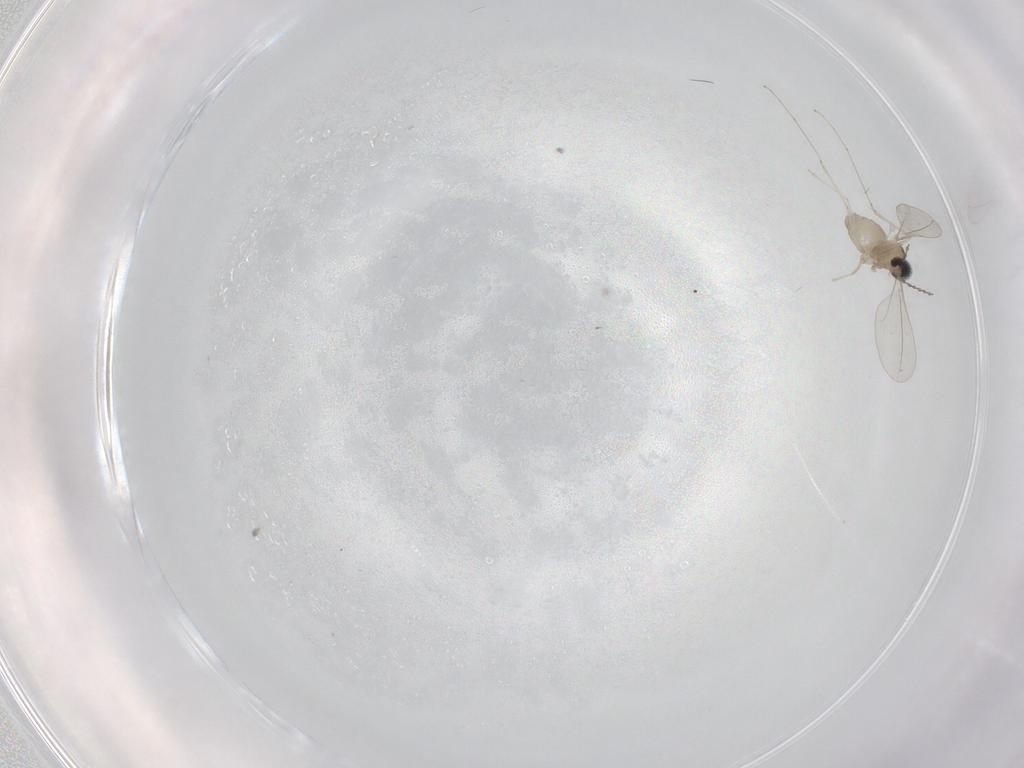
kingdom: Animalia
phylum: Arthropoda
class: Insecta
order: Diptera
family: Cecidomyiidae
